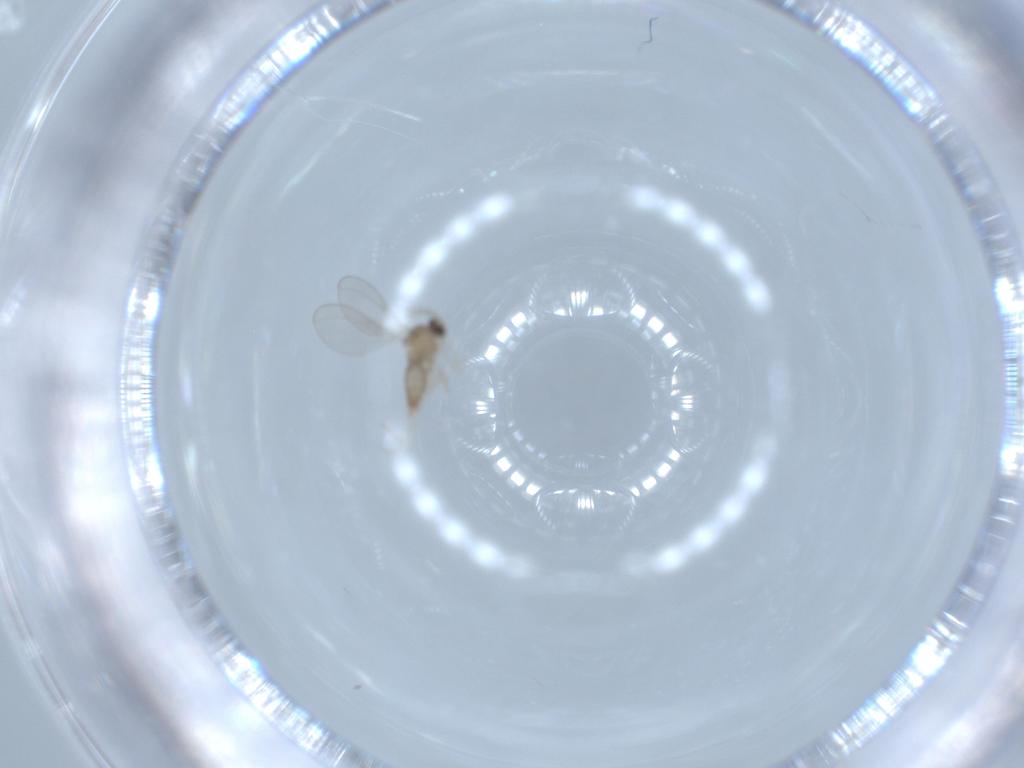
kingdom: Animalia
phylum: Arthropoda
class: Insecta
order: Diptera
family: Cecidomyiidae
